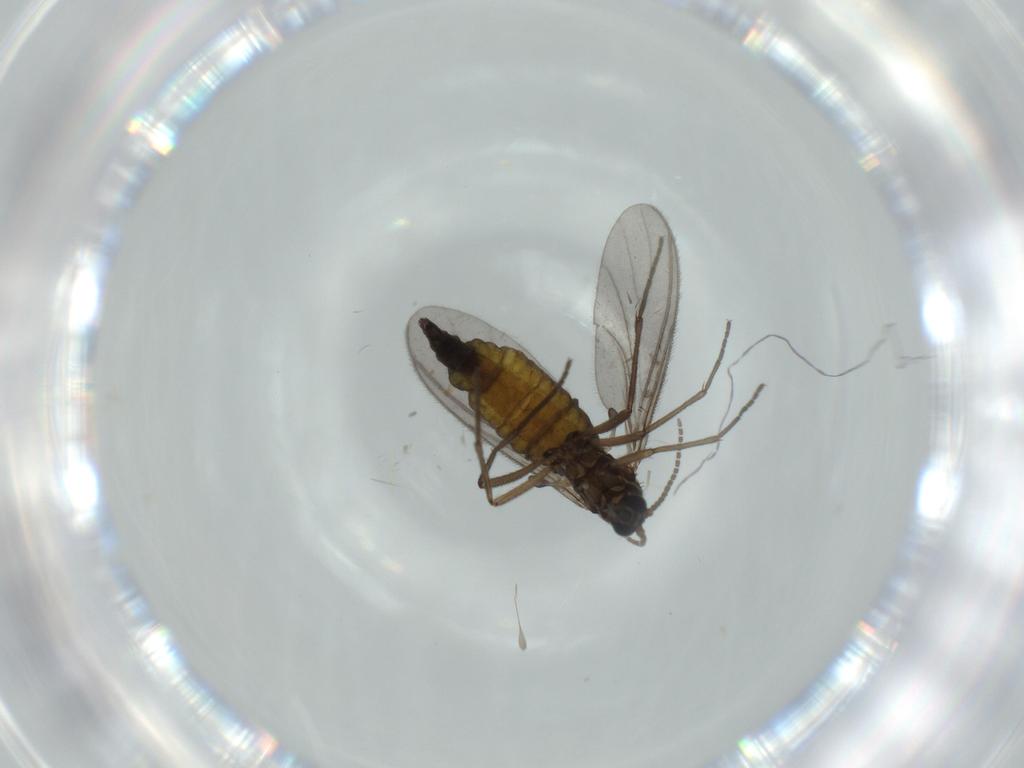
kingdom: Animalia
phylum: Arthropoda
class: Insecta
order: Diptera
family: Sciaridae
